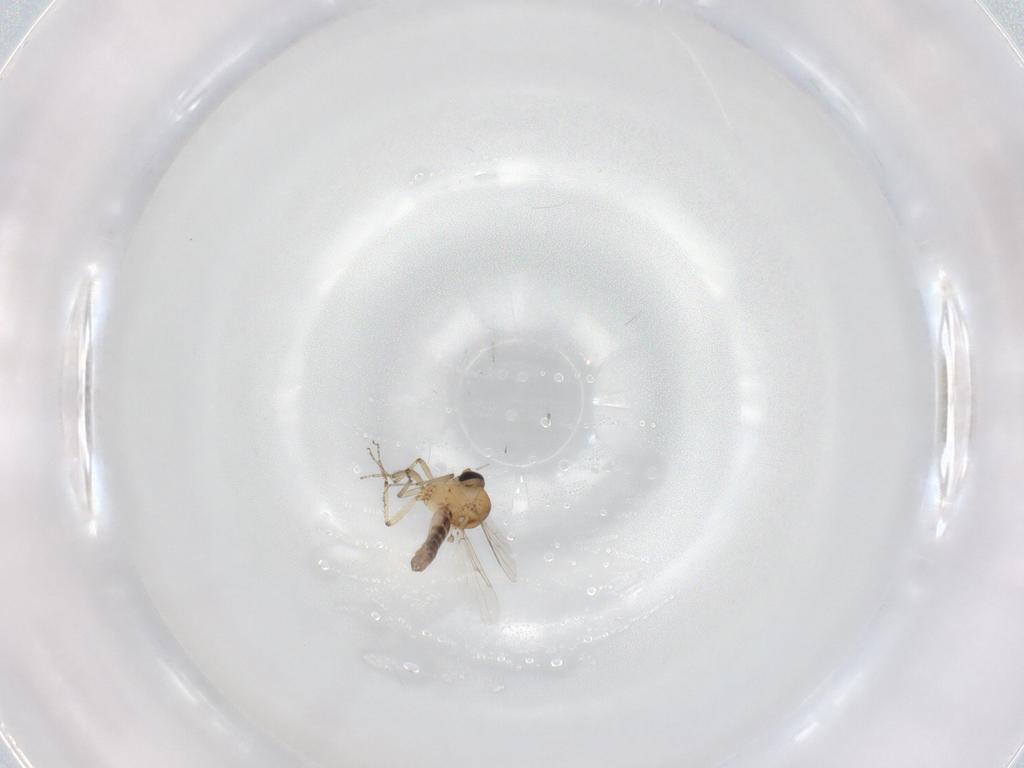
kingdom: Animalia
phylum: Arthropoda
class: Insecta
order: Diptera
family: Ceratopogonidae
